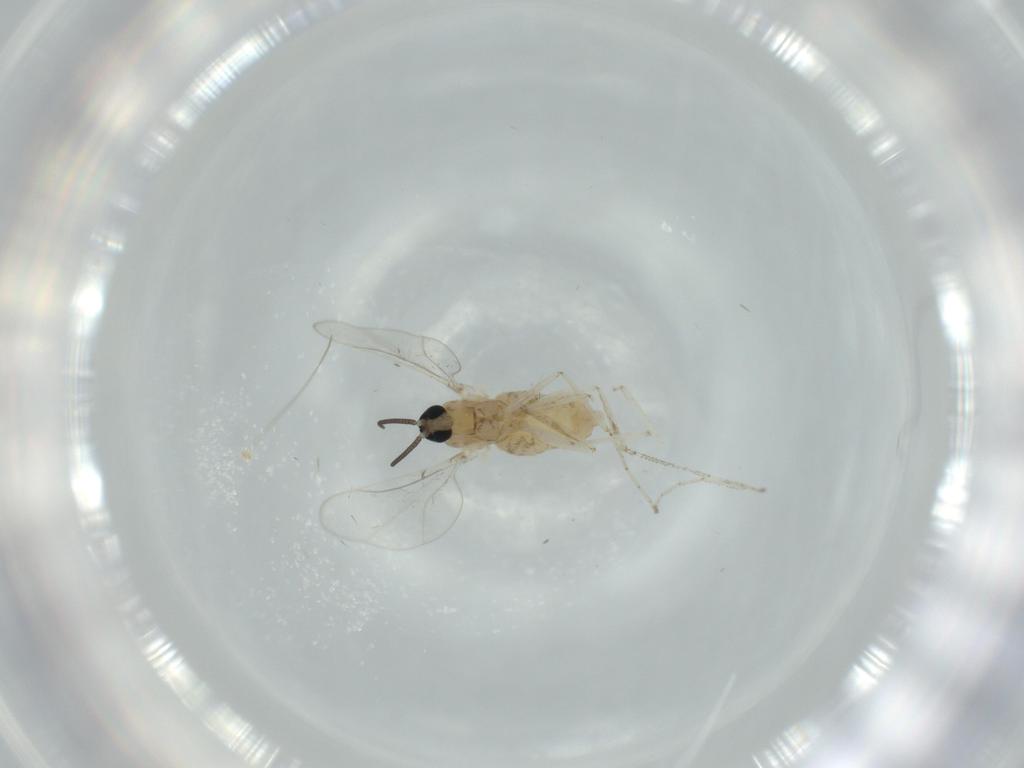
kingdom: Animalia
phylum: Arthropoda
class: Insecta
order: Diptera
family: Cecidomyiidae
